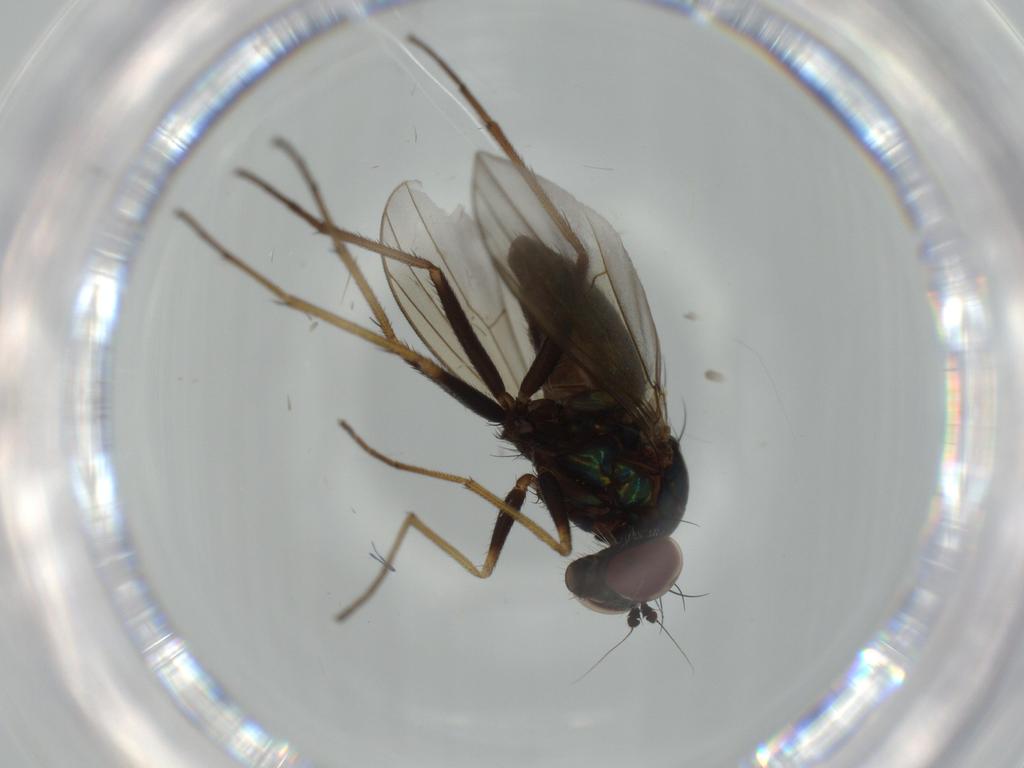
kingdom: Animalia
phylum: Arthropoda
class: Insecta
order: Diptera
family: Dolichopodidae
